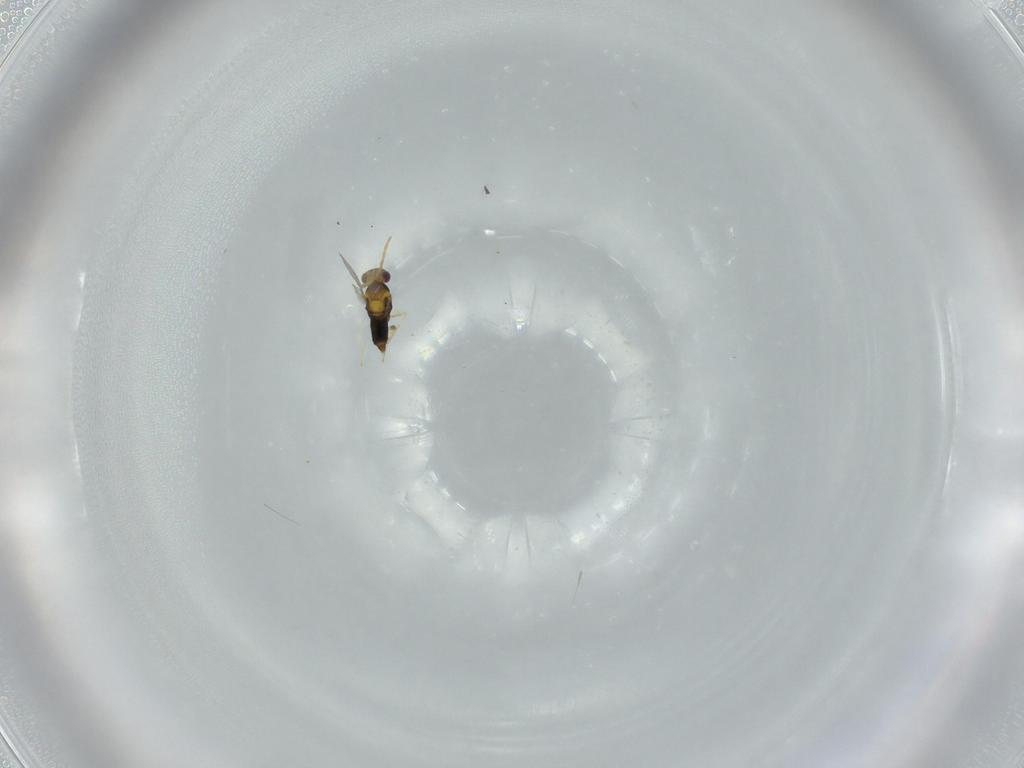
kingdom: Animalia
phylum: Arthropoda
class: Insecta
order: Hymenoptera
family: Aphelinidae
